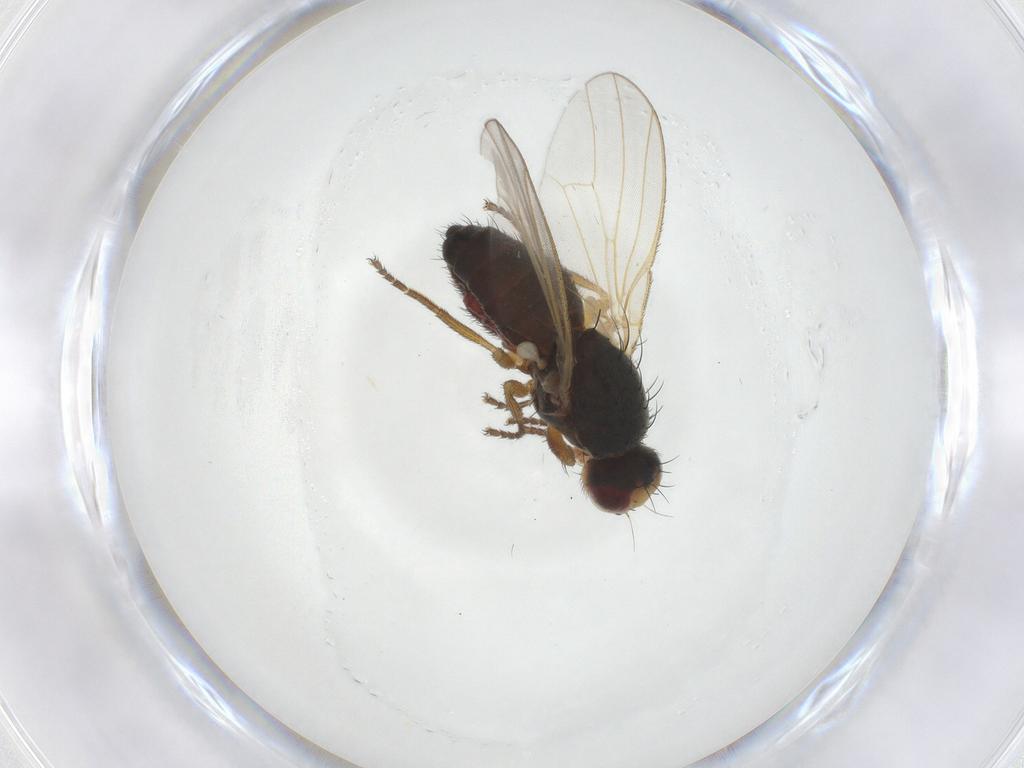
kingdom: Animalia
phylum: Arthropoda
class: Insecta
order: Diptera
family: Heleomyzidae
